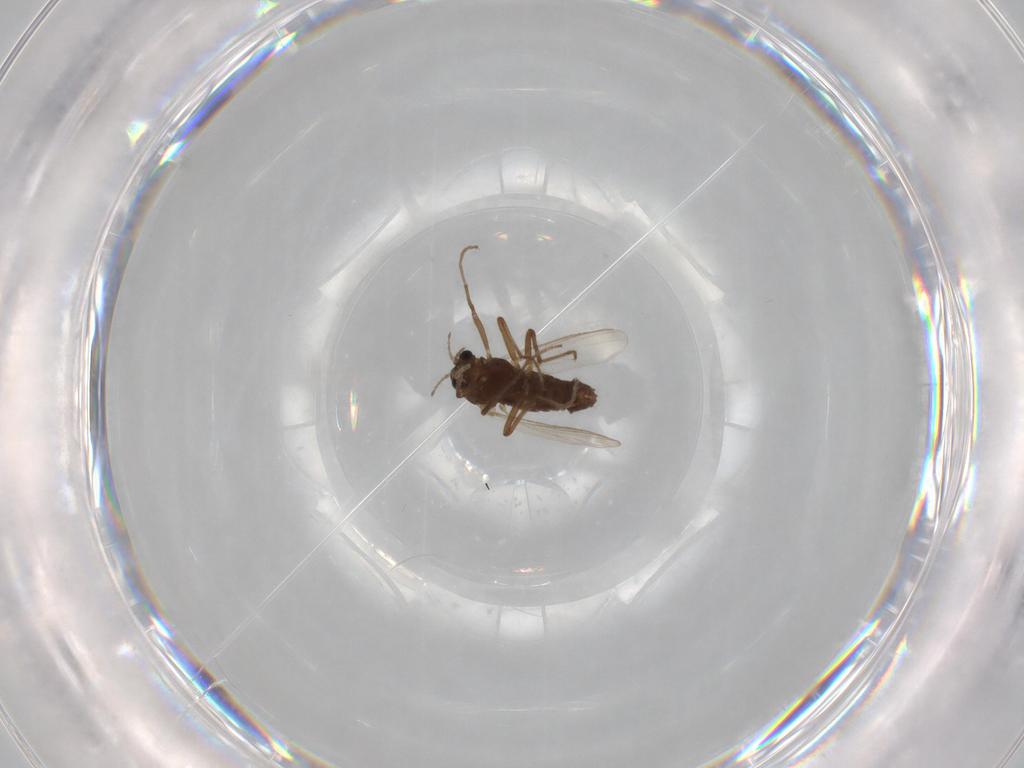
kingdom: Animalia
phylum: Arthropoda
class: Insecta
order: Diptera
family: Chironomidae
